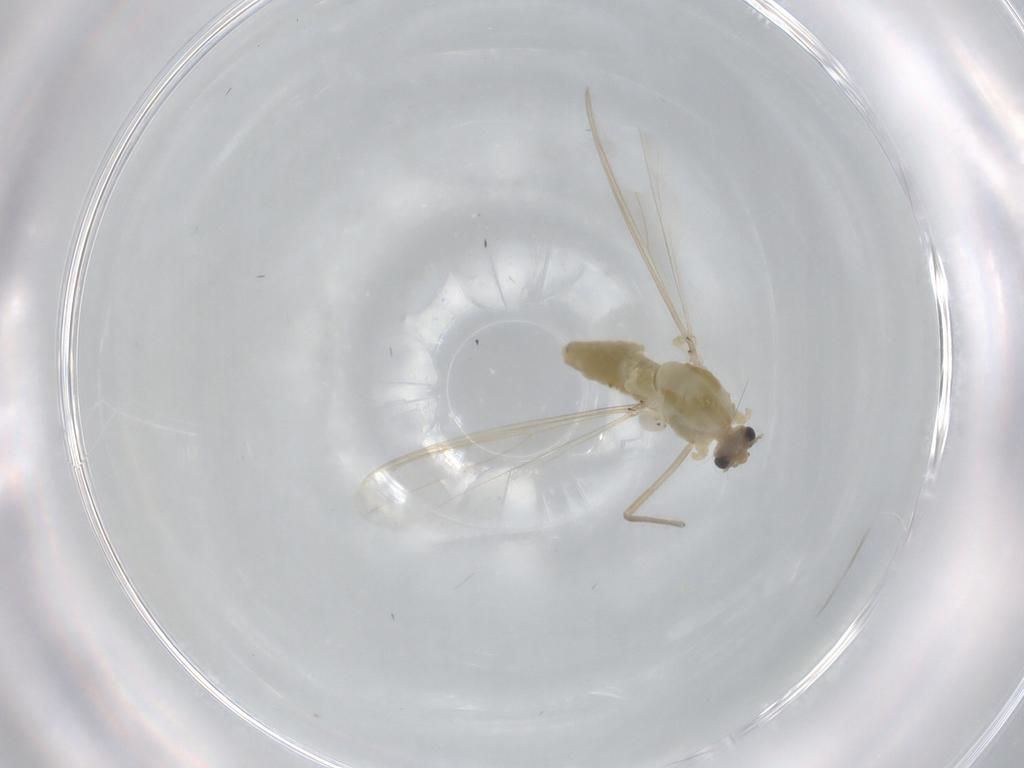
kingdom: Animalia
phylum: Arthropoda
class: Insecta
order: Diptera
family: Chironomidae
